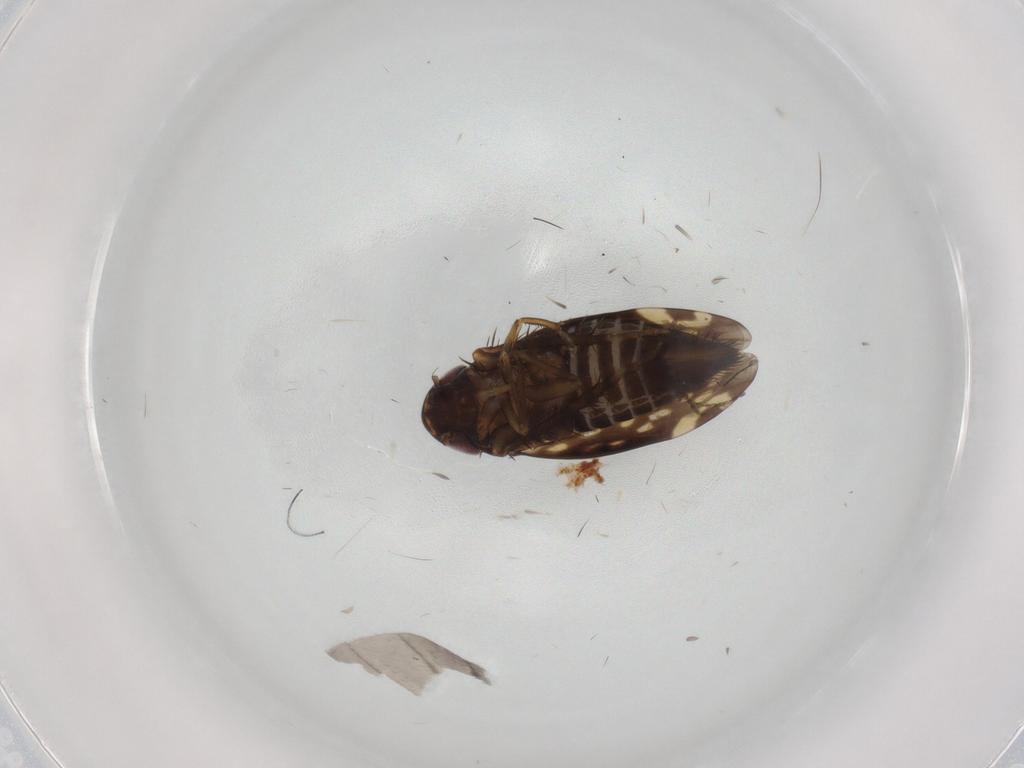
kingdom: Animalia
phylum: Arthropoda
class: Insecta
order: Hemiptera
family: Cicadellidae
